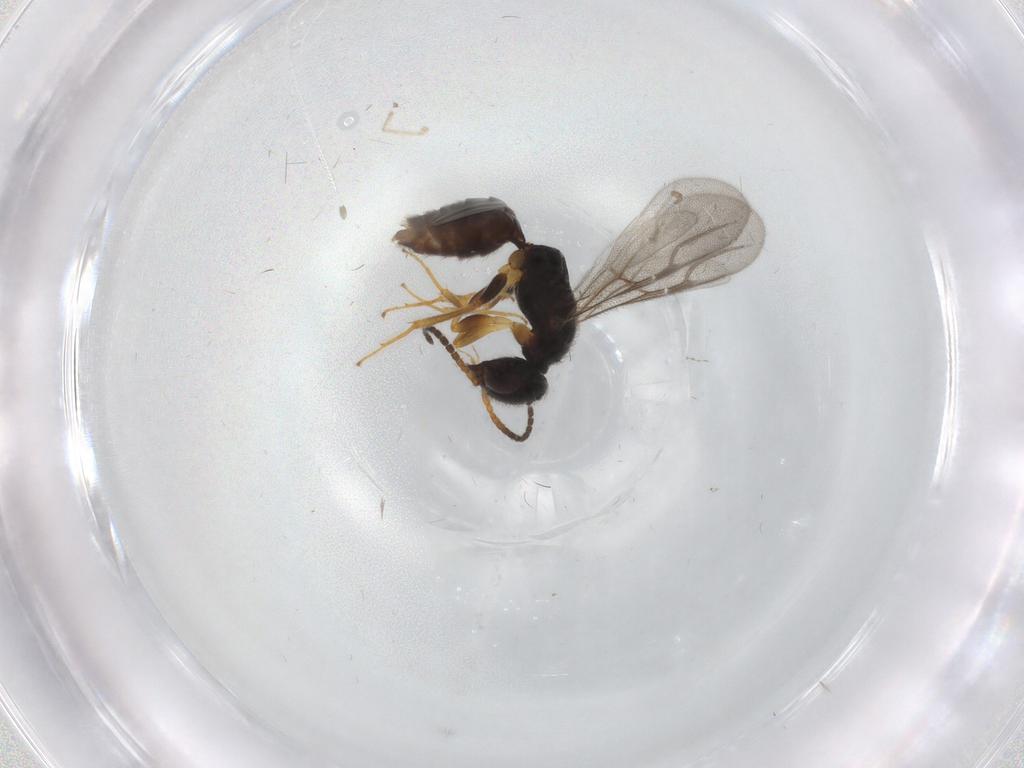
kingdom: Animalia
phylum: Arthropoda
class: Insecta
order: Hymenoptera
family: Bethylidae
